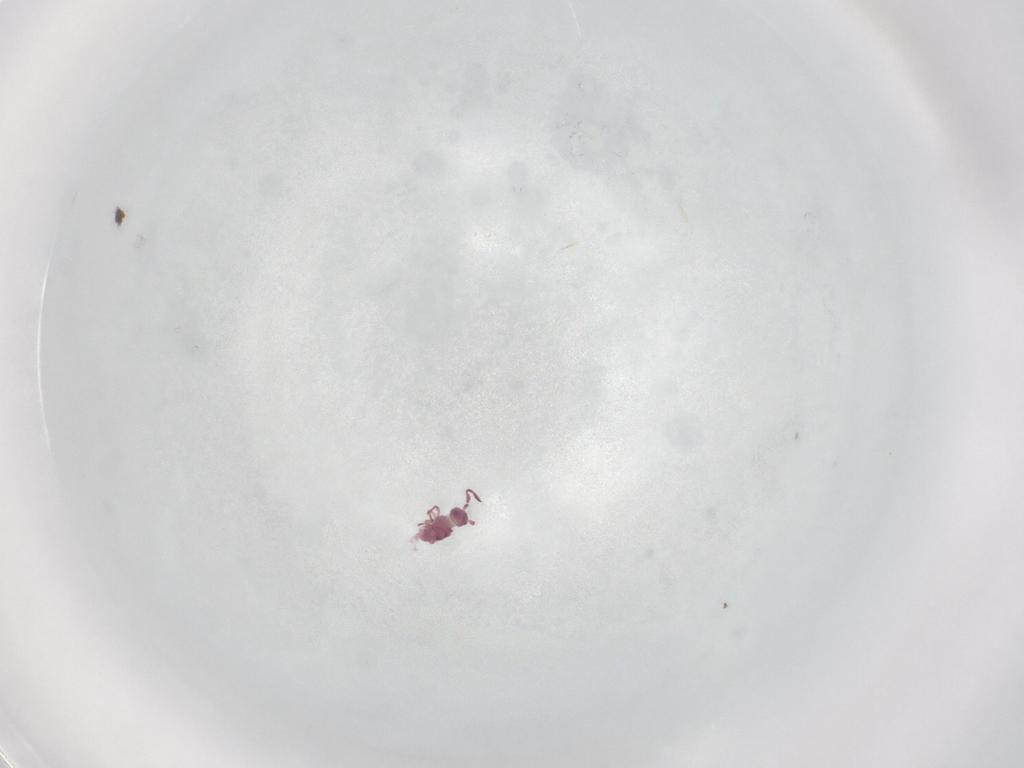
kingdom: Animalia
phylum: Arthropoda
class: Collembola
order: Symphypleona
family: Sminthurididae
